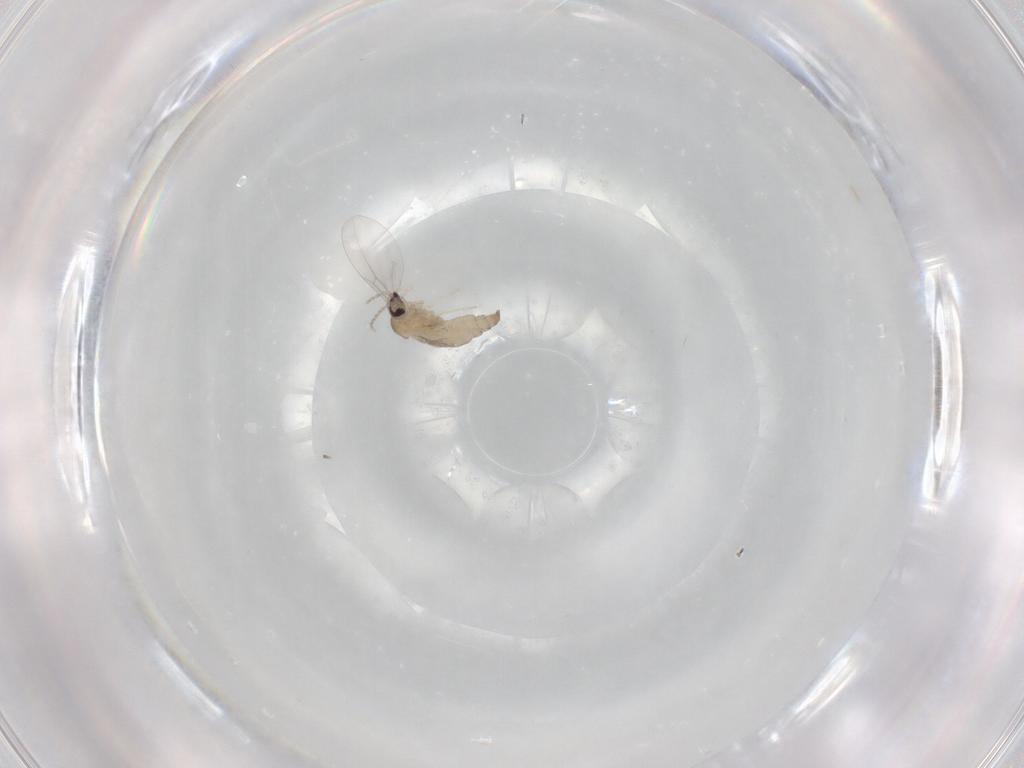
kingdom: Animalia
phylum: Arthropoda
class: Insecta
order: Diptera
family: Cecidomyiidae
